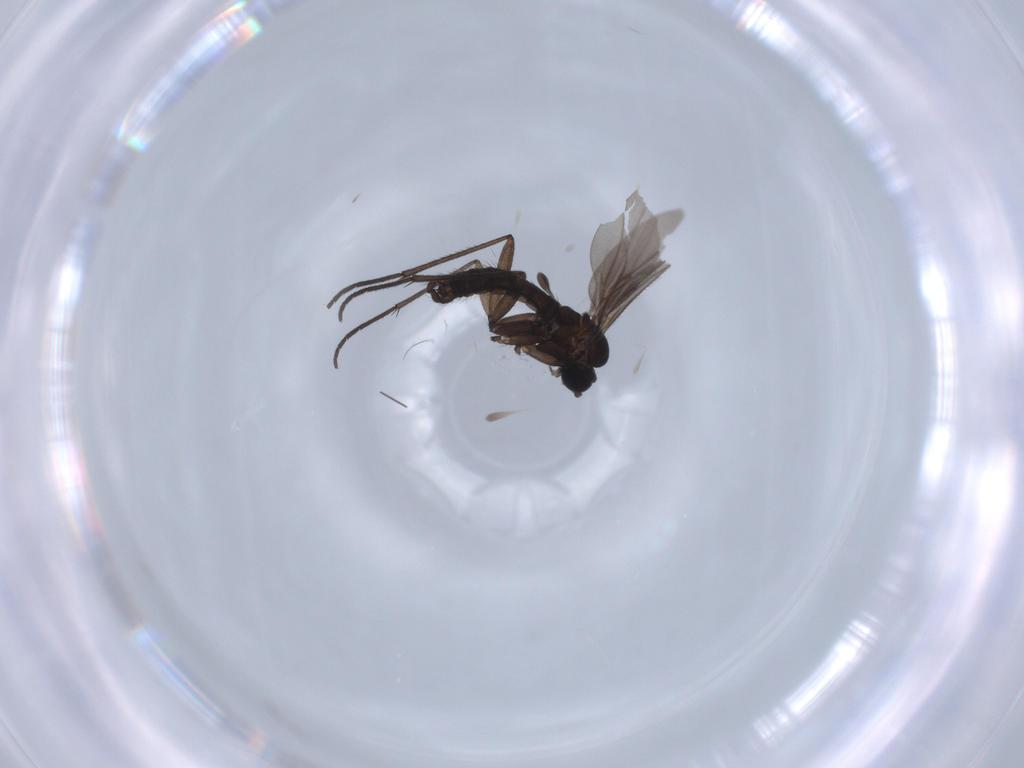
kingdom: Animalia
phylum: Arthropoda
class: Insecta
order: Diptera
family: Sciaridae
